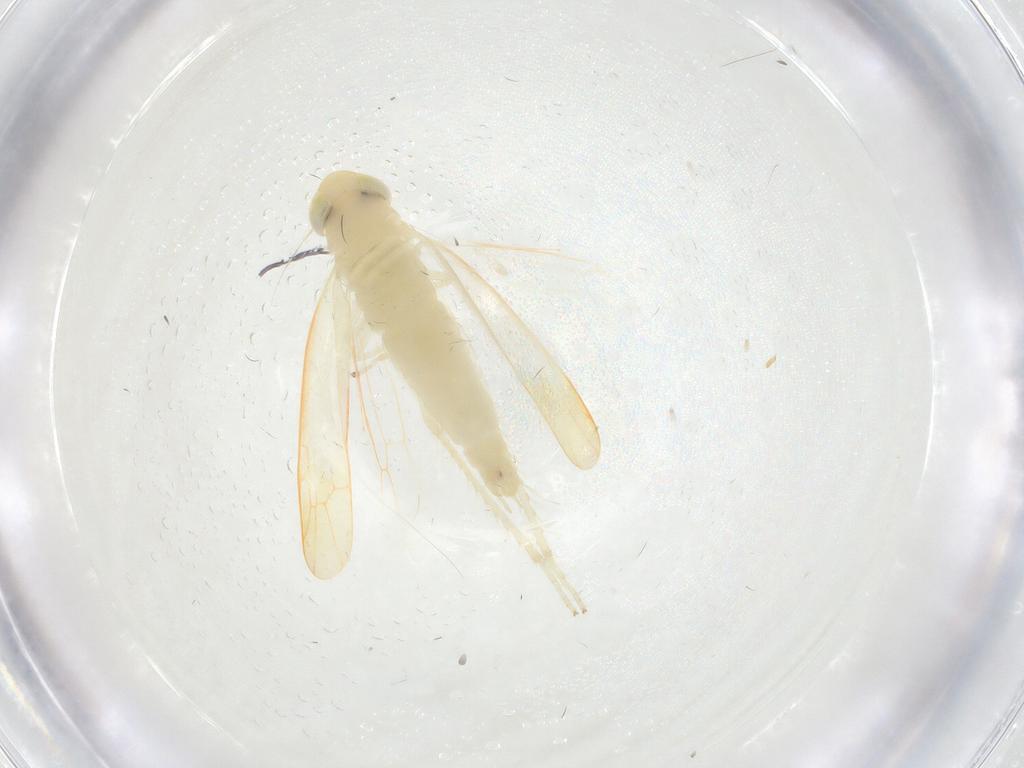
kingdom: Animalia
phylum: Arthropoda
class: Insecta
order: Hemiptera
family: Cicadellidae
